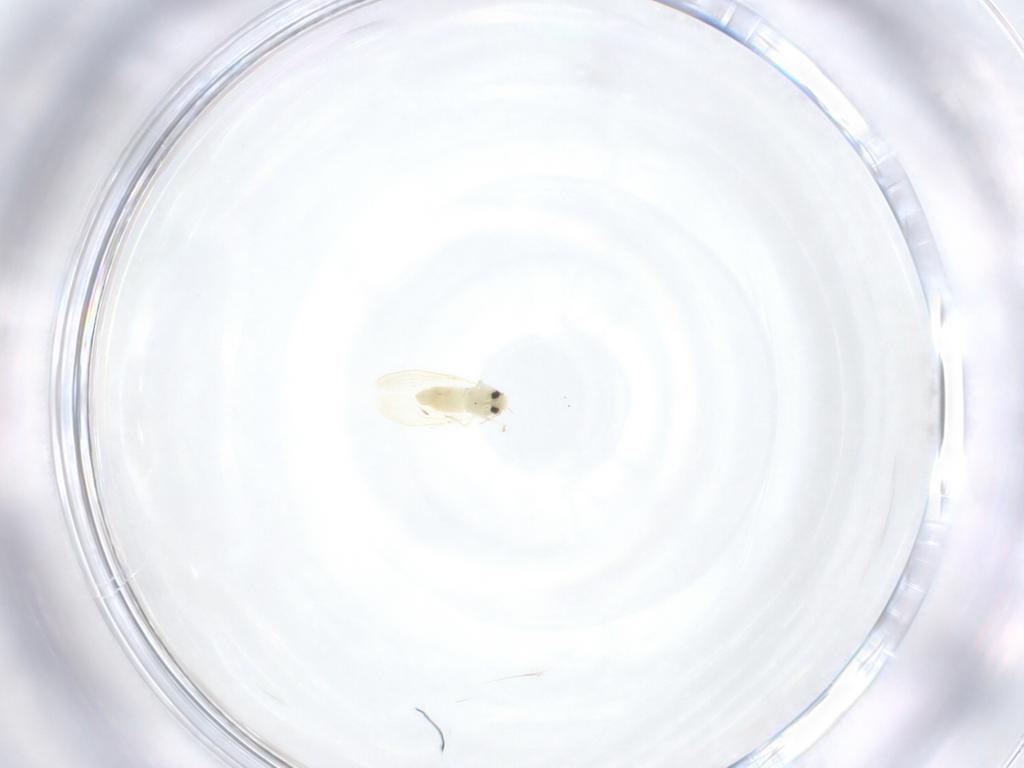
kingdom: Animalia
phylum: Arthropoda
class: Insecta
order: Hemiptera
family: Aleyrodidae
